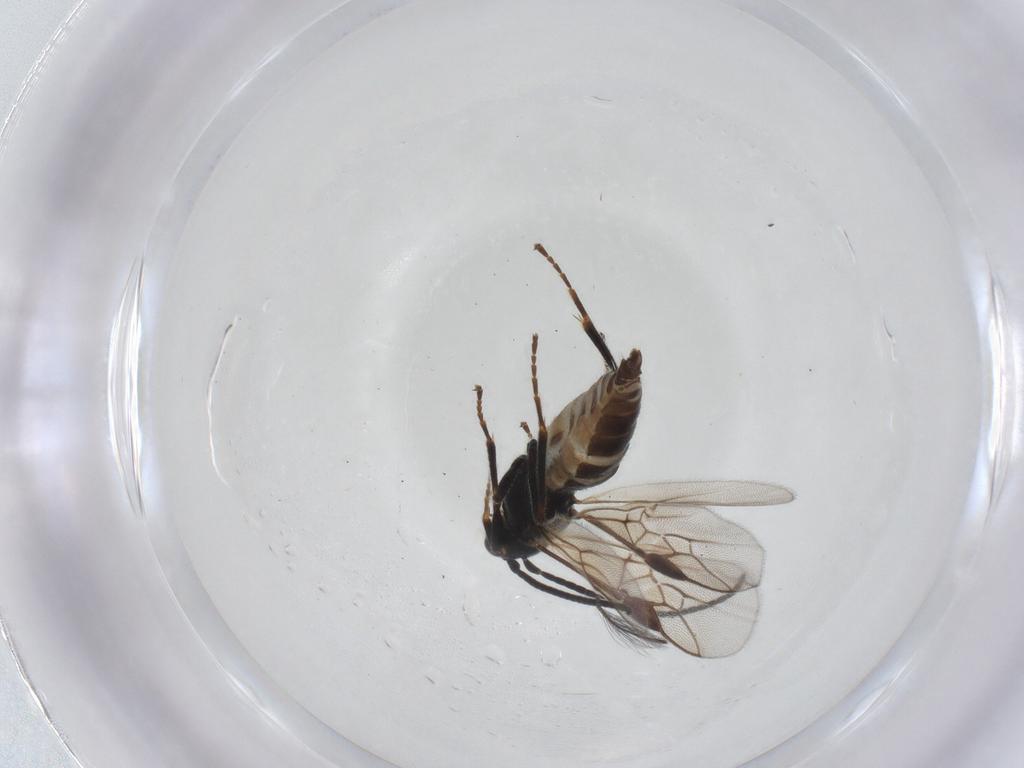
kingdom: Animalia
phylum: Arthropoda
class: Insecta
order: Hymenoptera
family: Braconidae
